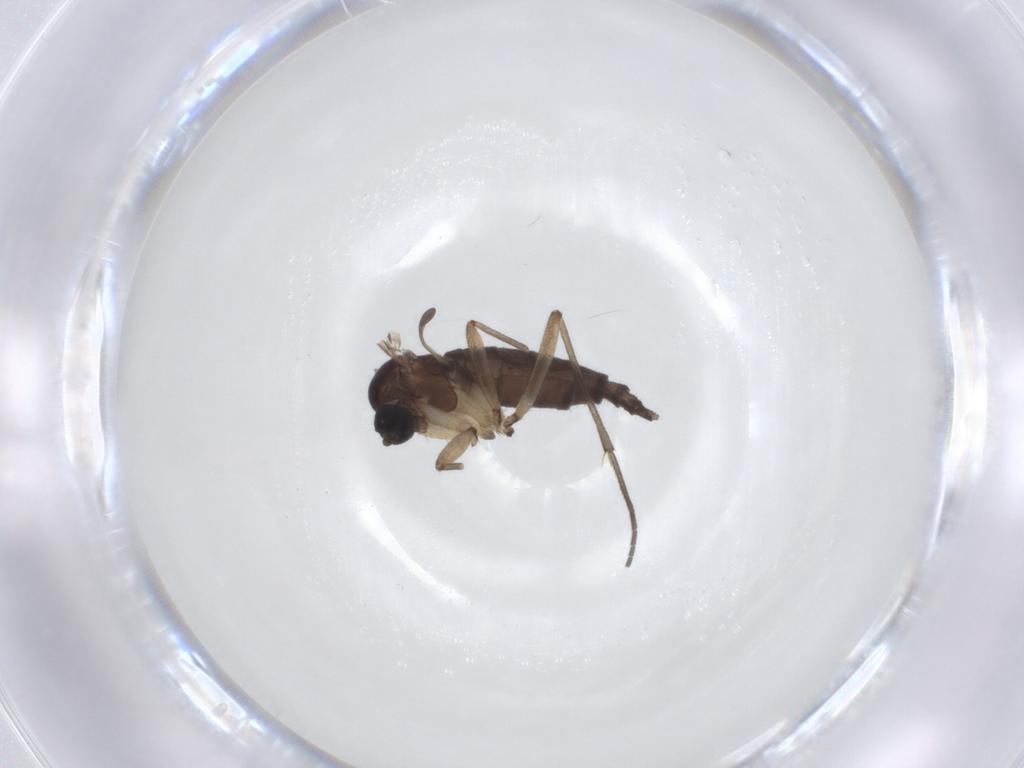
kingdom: Animalia
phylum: Arthropoda
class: Insecta
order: Diptera
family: Sciaridae
